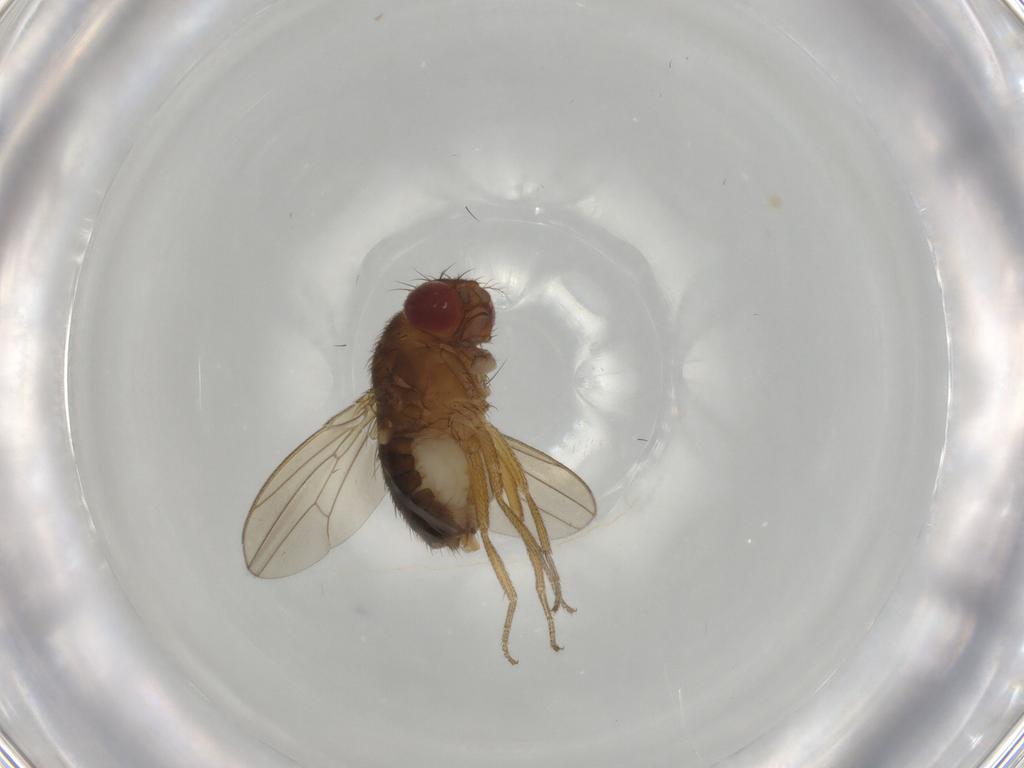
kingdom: Animalia
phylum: Arthropoda
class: Insecta
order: Diptera
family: Drosophilidae
